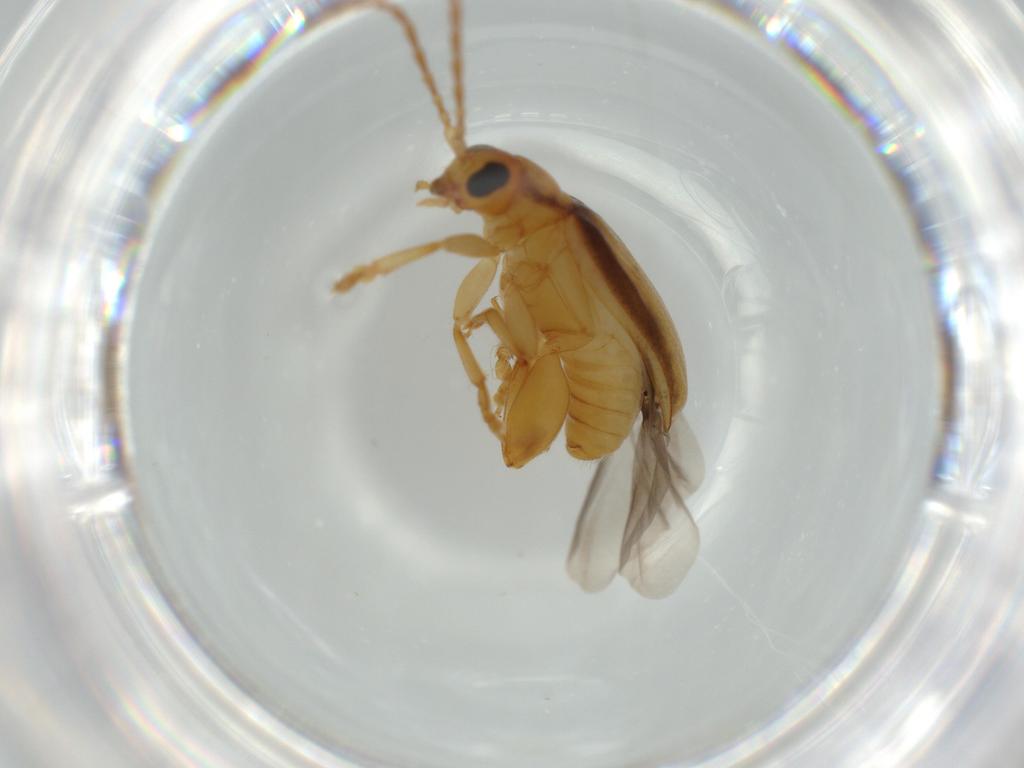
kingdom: Animalia
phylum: Arthropoda
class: Insecta
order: Coleoptera
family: Chrysomelidae
